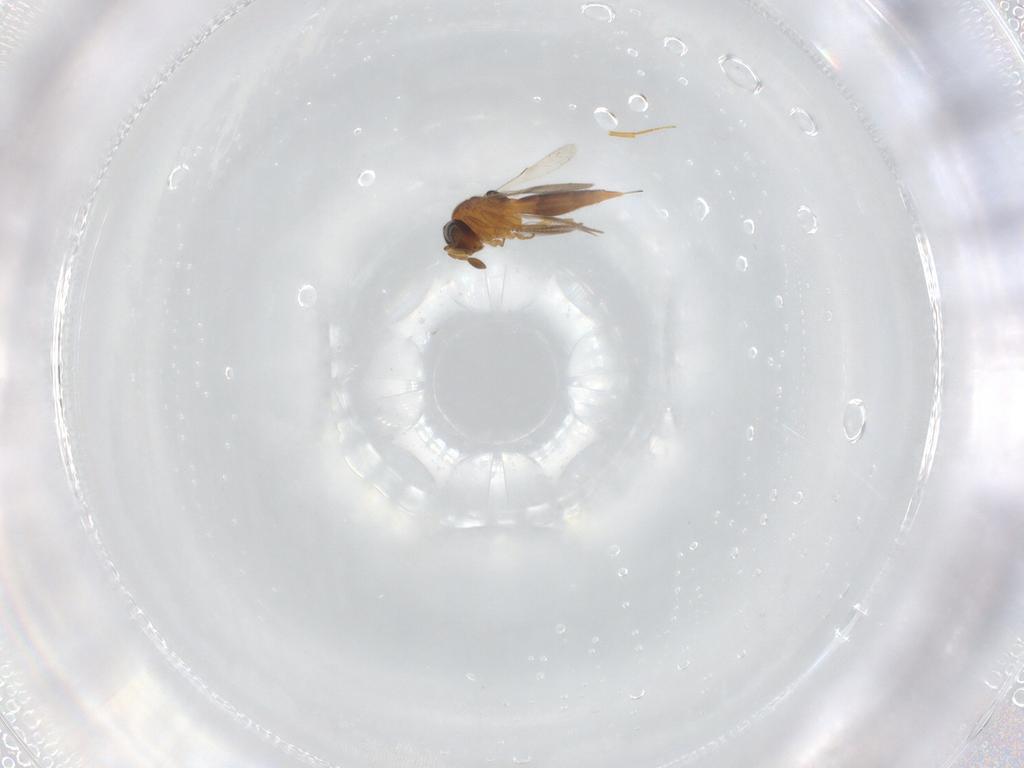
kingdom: Animalia
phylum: Arthropoda
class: Insecta
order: Hymenoptera
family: Scelionidae
